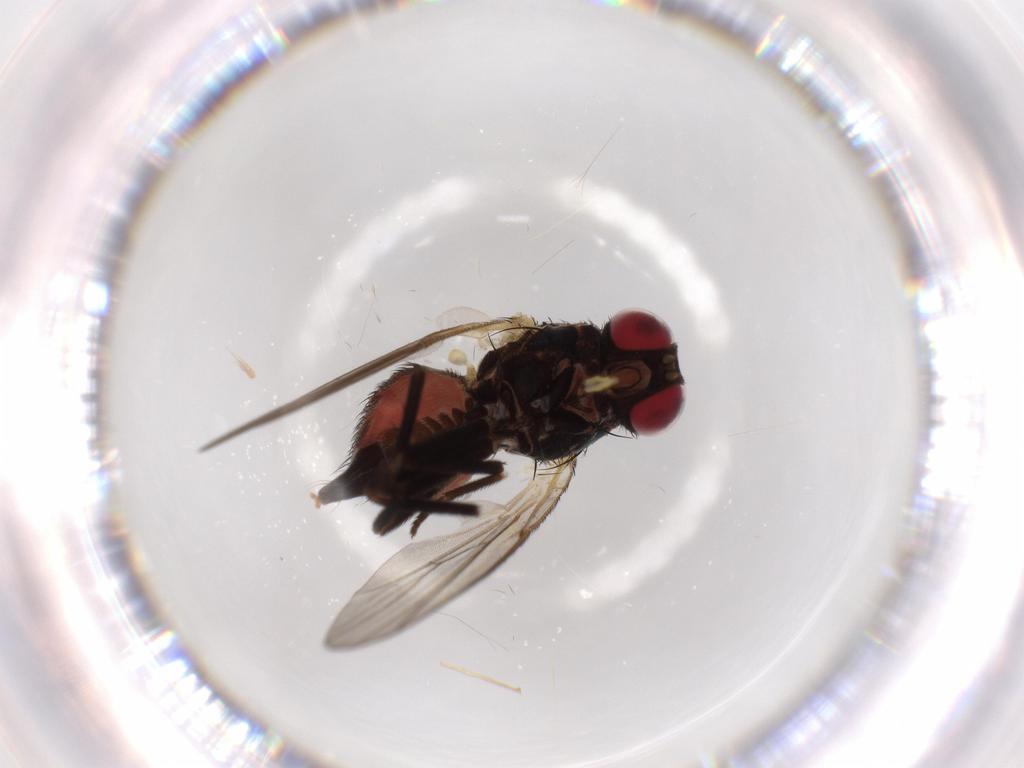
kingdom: Animalia
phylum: Arthropoda
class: Insecta
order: Diptera
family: Agromyzidae
